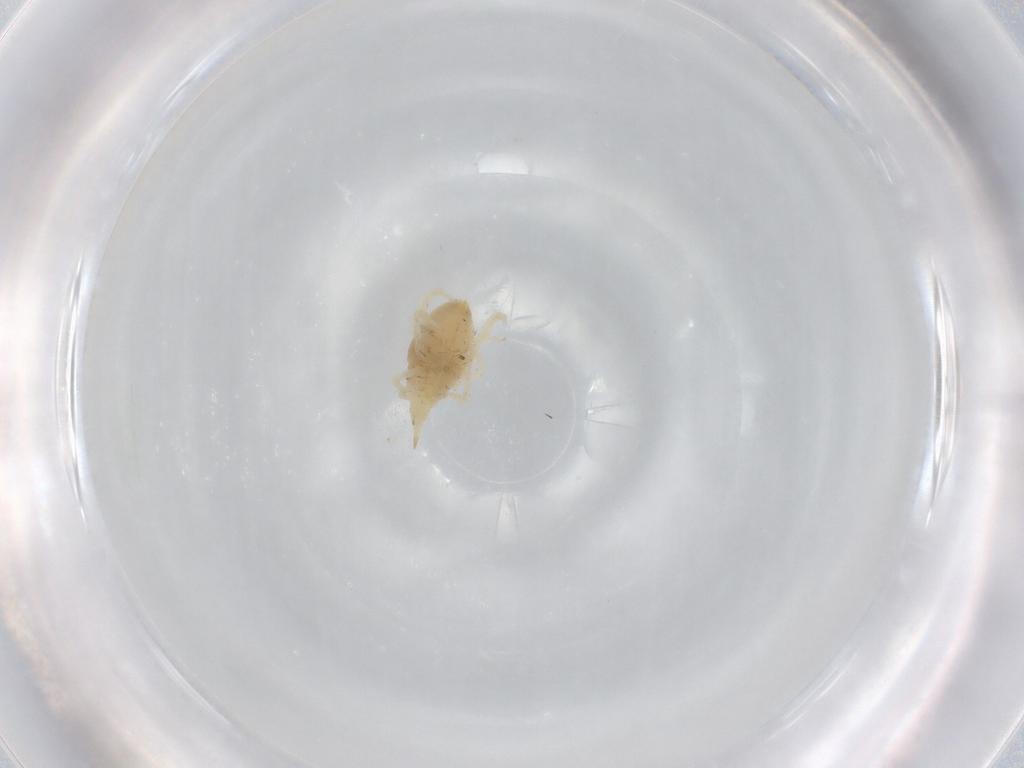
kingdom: Animalia
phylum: Arthropoda
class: Arachnida
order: Trombidiformes
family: Bdellidae
